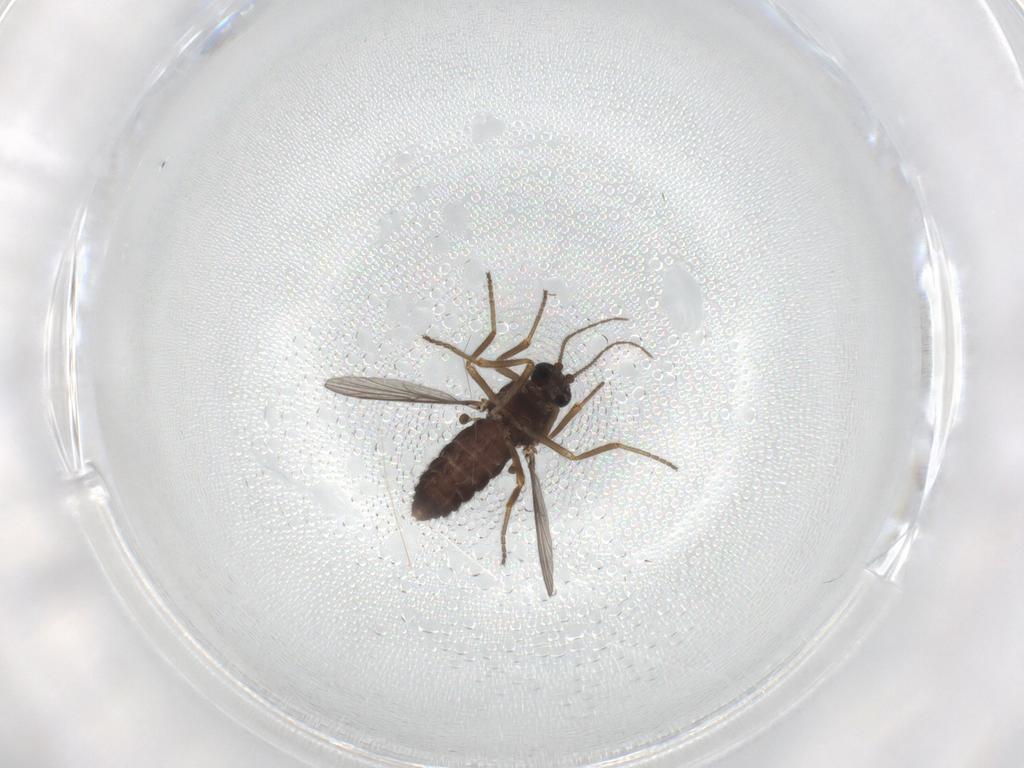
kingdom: Animalia
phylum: Arthropoda
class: Insecta
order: Diptera
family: Ceratopogonidae
